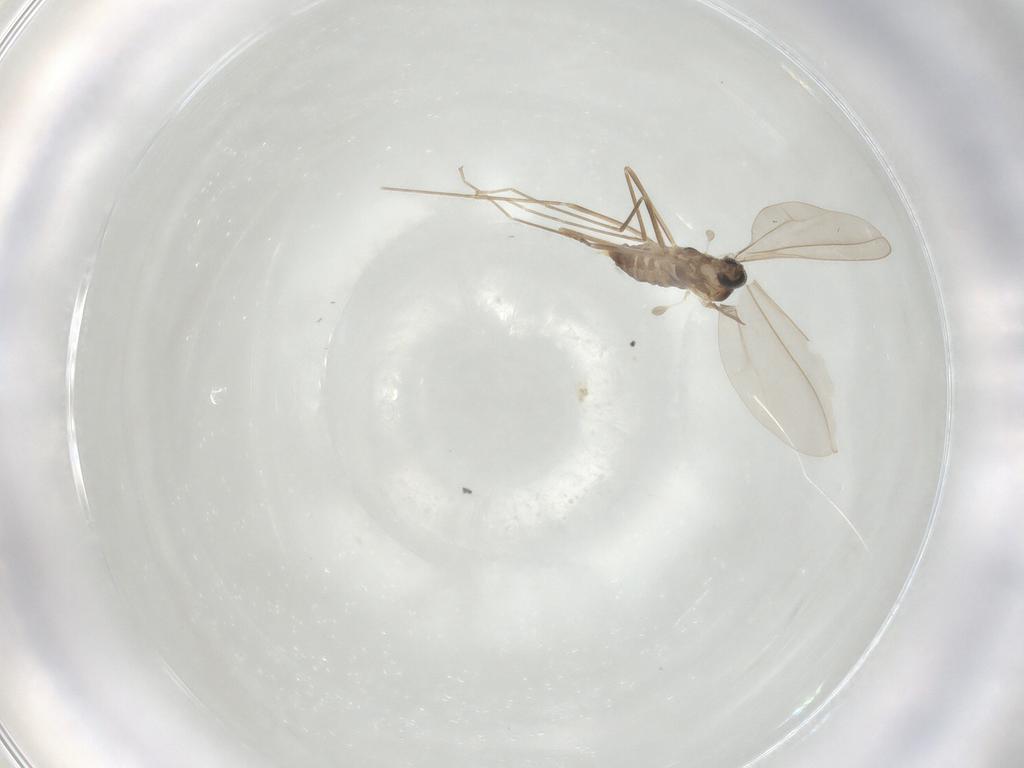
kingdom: Animalia
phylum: Arthropoda
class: Insecta
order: Diptera
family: Cecidomyiidae
